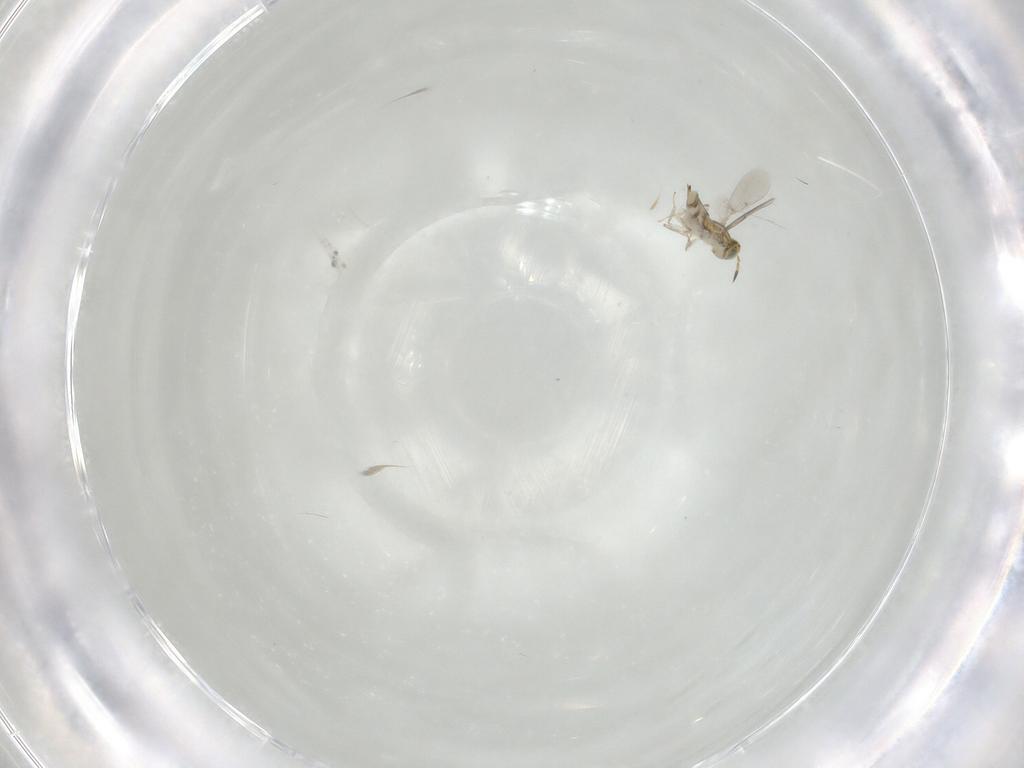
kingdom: Animalia
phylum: Arthropoda
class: Insecta
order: Hymenoptera
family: Aphelinidae
